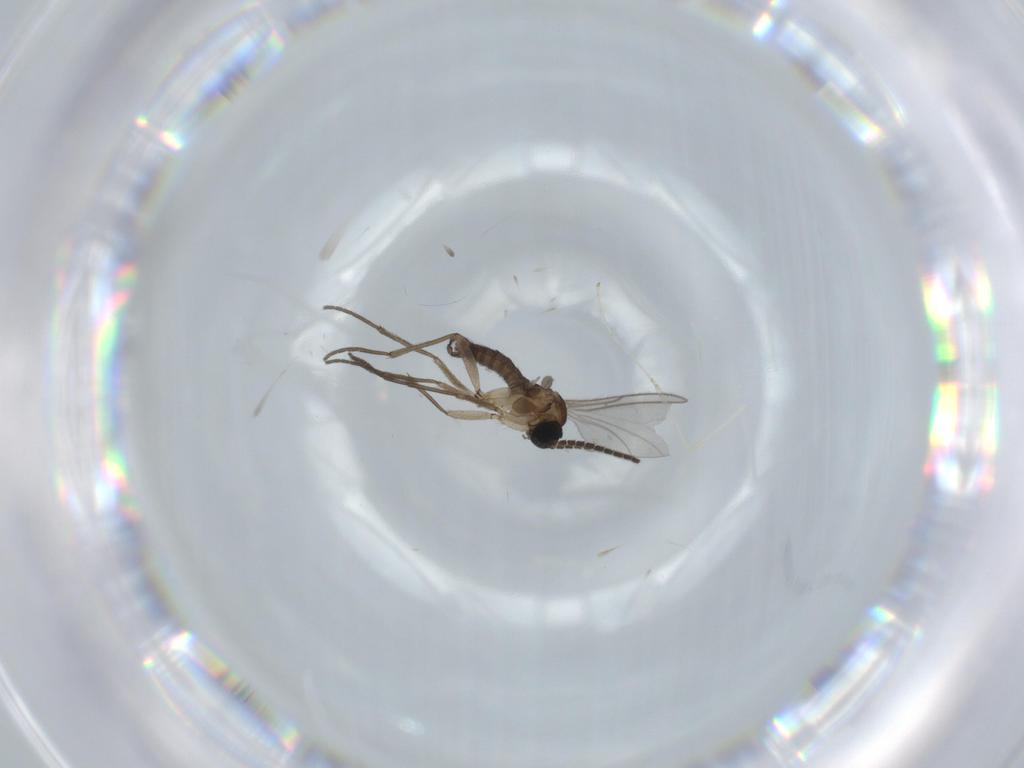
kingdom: Animalia
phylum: Arthropoda
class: Insecta
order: Diptera
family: Sciaridae
